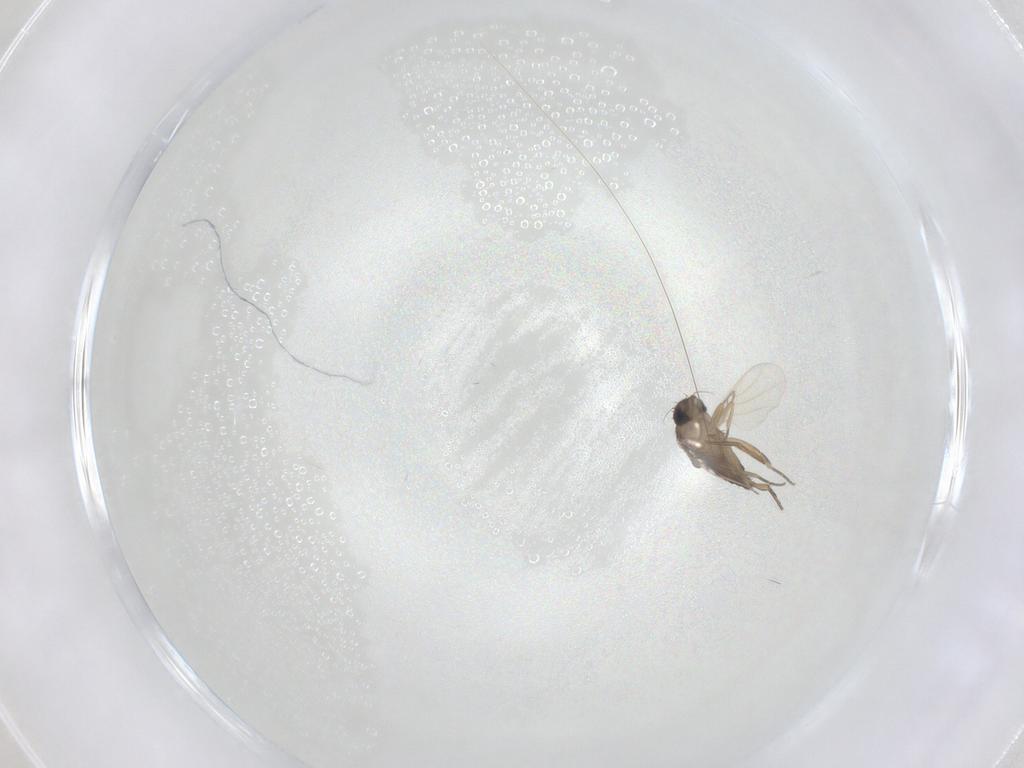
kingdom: Animalia
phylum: Arthropoda
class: Insecta
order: Diptera
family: Phoridae
